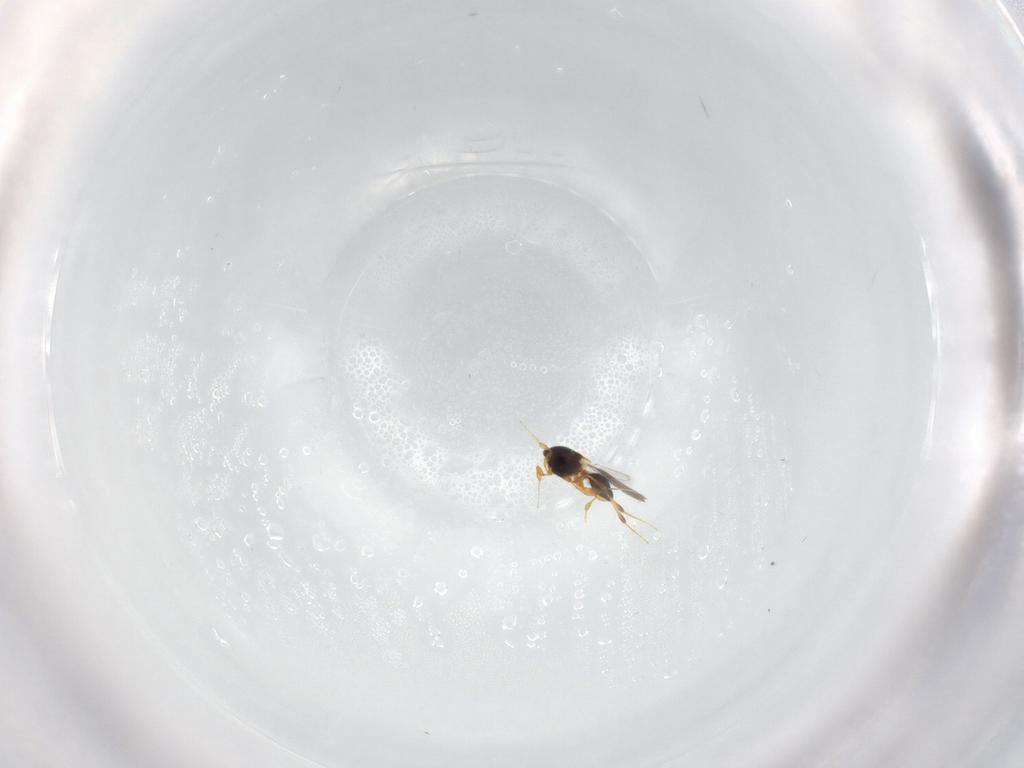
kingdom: Animalia
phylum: Arthropoda
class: Insecta
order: Hymenoptera
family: Platygastridae
